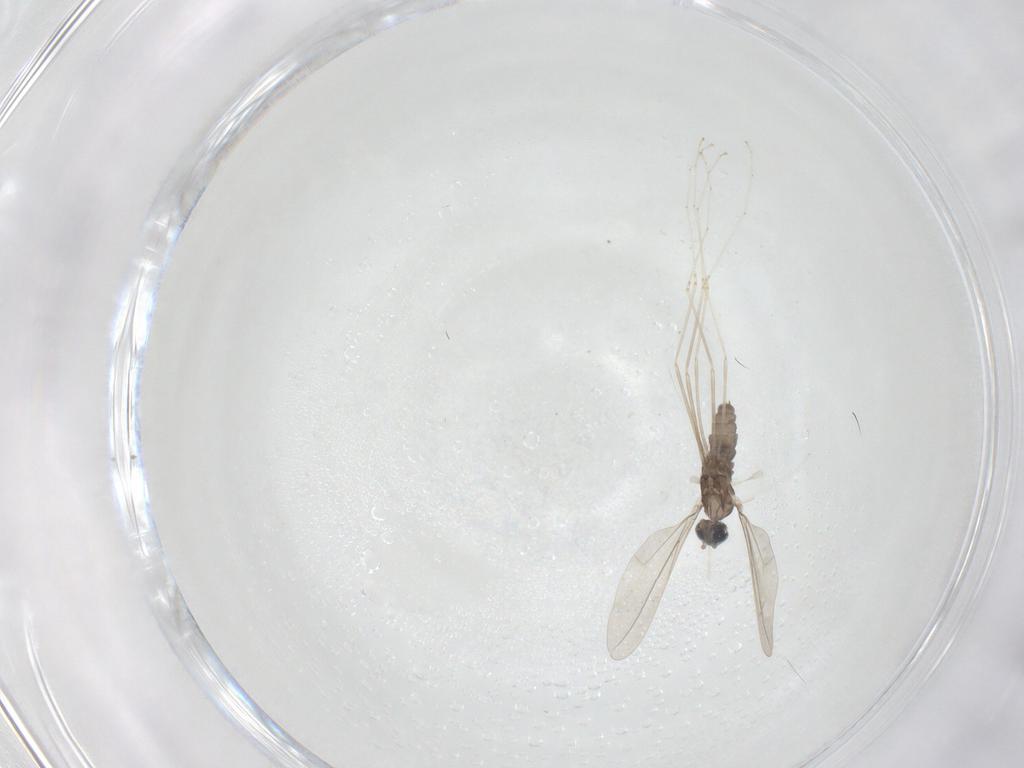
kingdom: Animalia
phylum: Arthropoda
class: Insecta
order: Diptera
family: Cecidomyiidae
